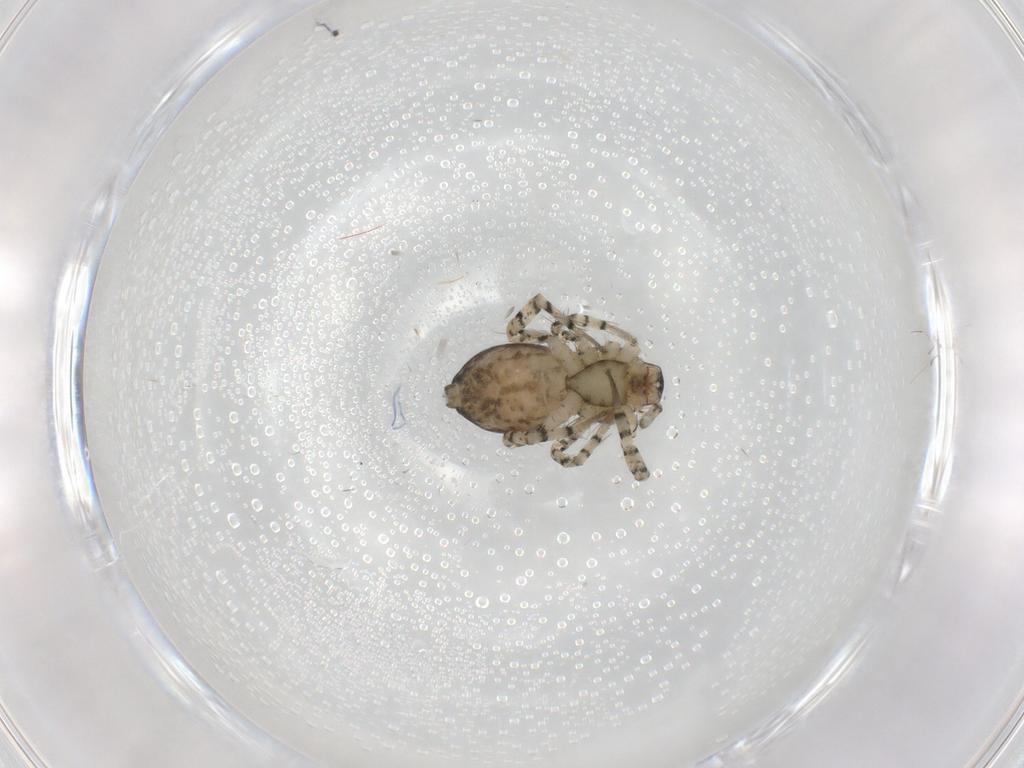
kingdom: Animalia
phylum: Arthropoda
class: Arachnida
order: Araneae
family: Anyphaenidae
